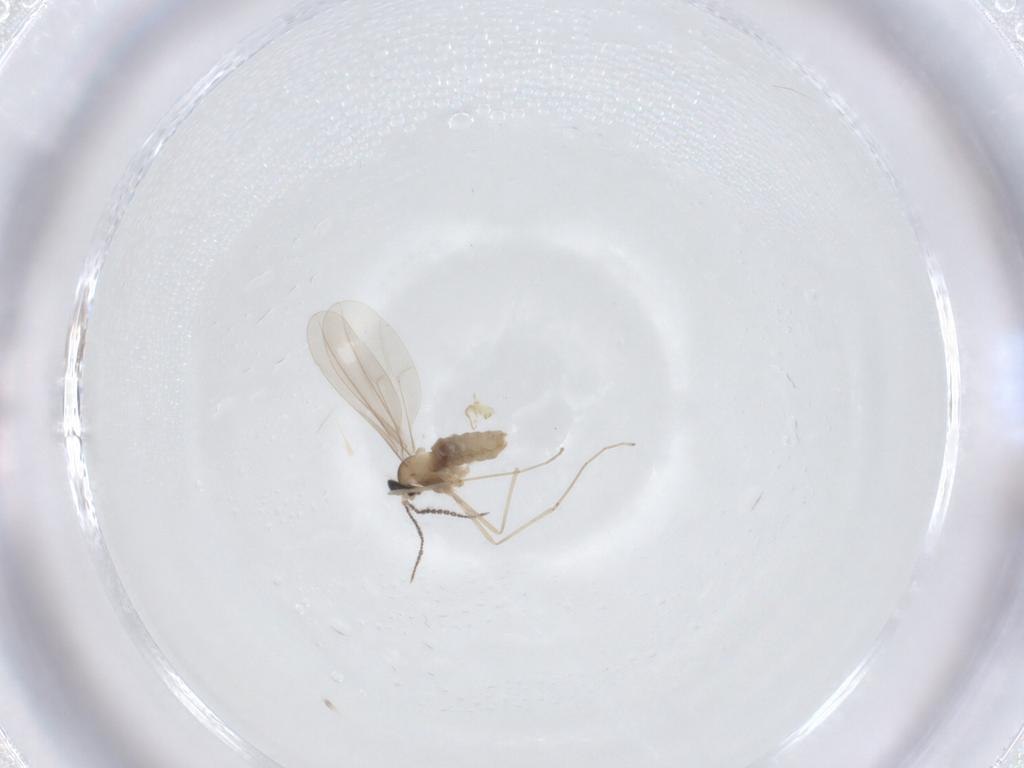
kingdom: Animalia
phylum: Arthropoda
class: Insecta
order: Diptera
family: Cecidomyiidae
